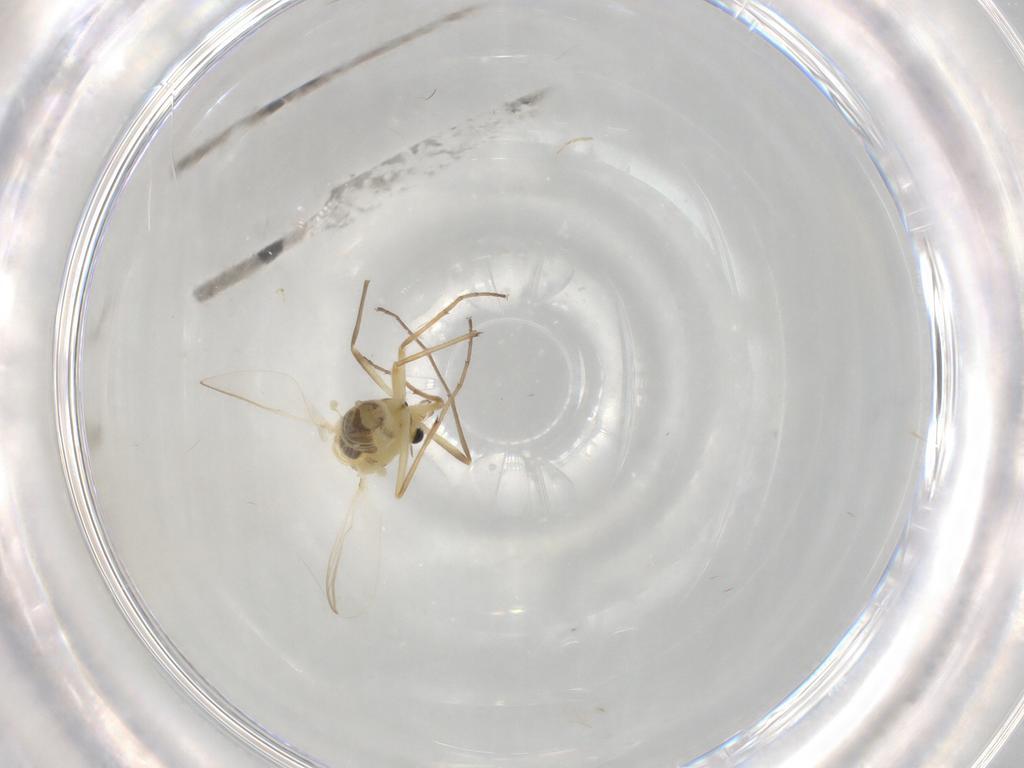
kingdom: Animalia
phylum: Arthropoda
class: Insecta
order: Diptera
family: Chironomidae
